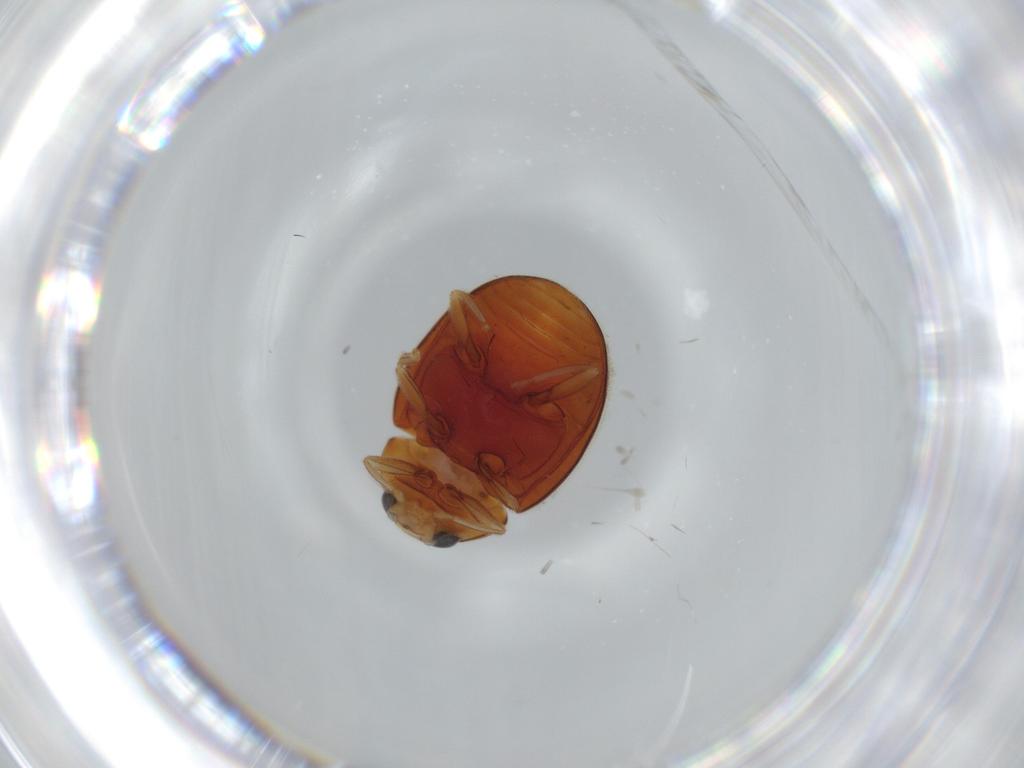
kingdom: Animalia
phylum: Arthropoda
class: Insecta
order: Coleoptera
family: Coccinellidae
